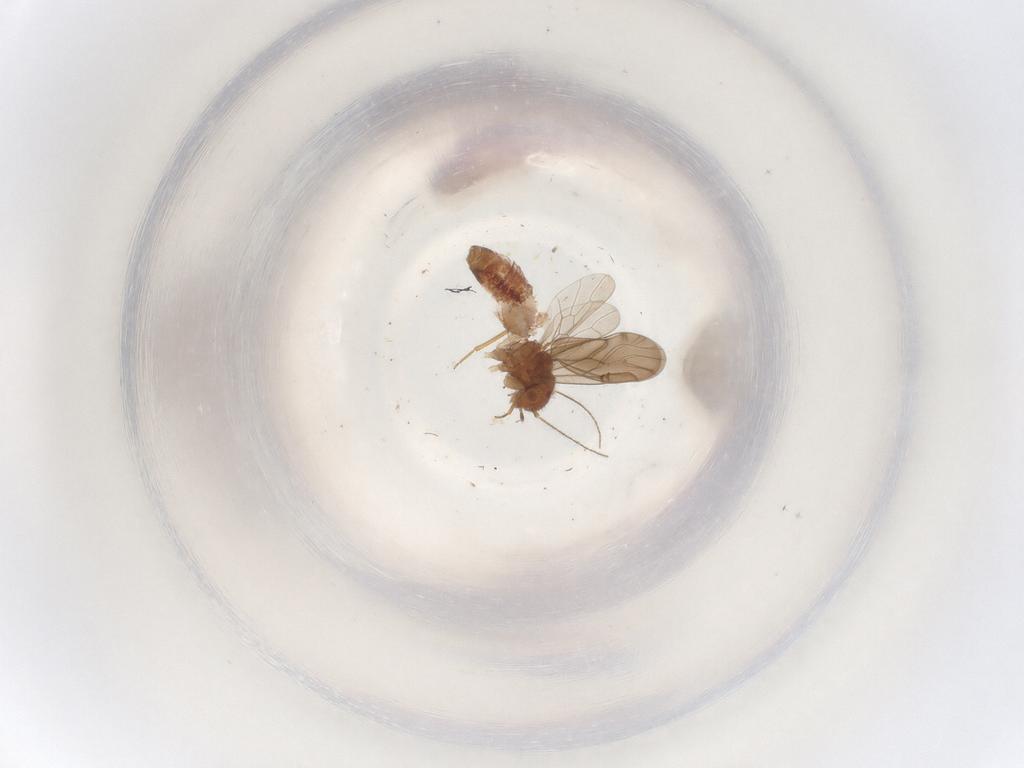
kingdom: Animalia
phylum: Arthropoda
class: Insecta
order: Psocodea
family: Ectopsocidae
